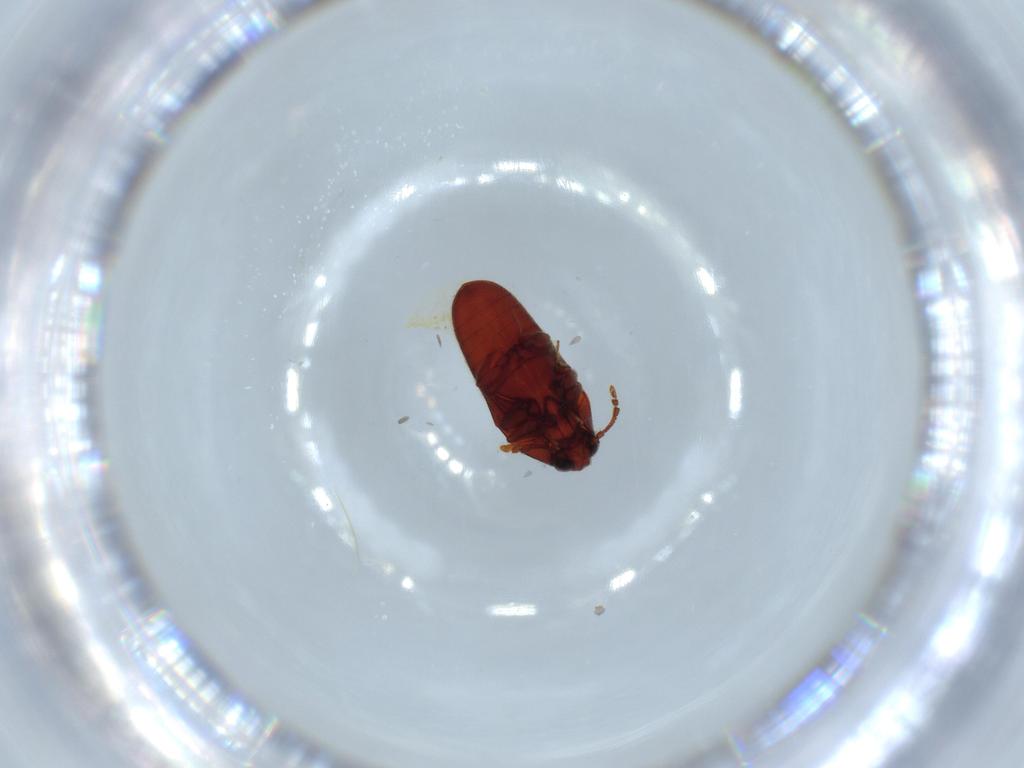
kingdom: Animalia
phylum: Arthropoda
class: Insecta
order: Coleoptera
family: Throscidae
